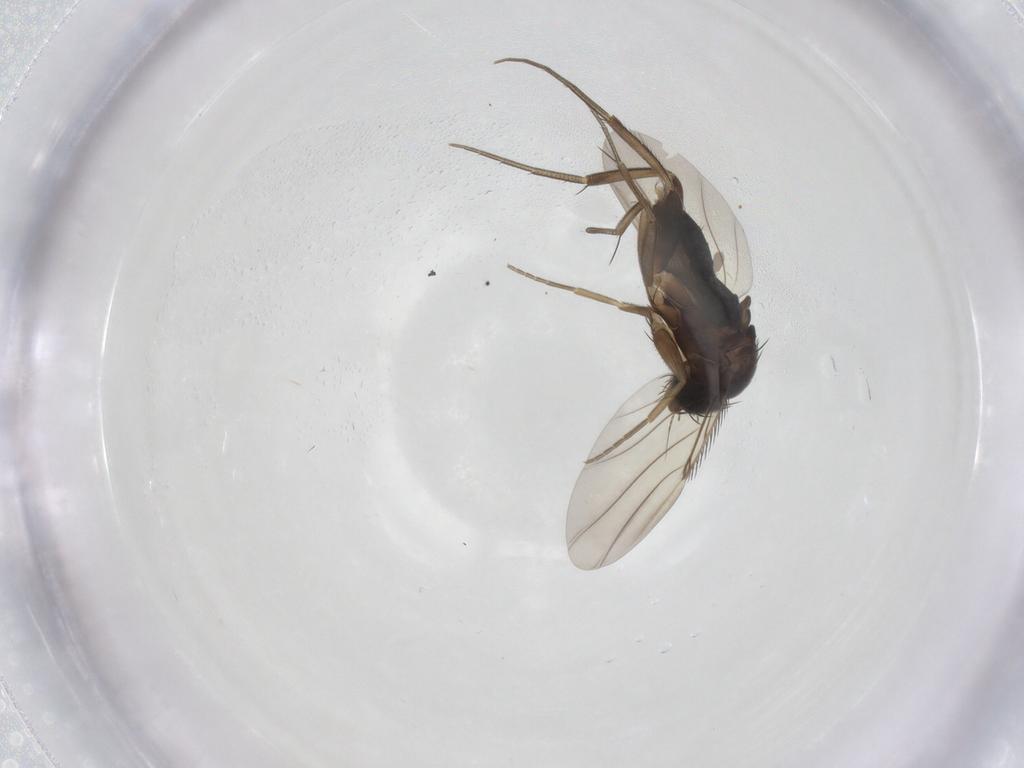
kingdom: Animalia
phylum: Arthropoda
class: Insecta
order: Diptera
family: Phoridae
